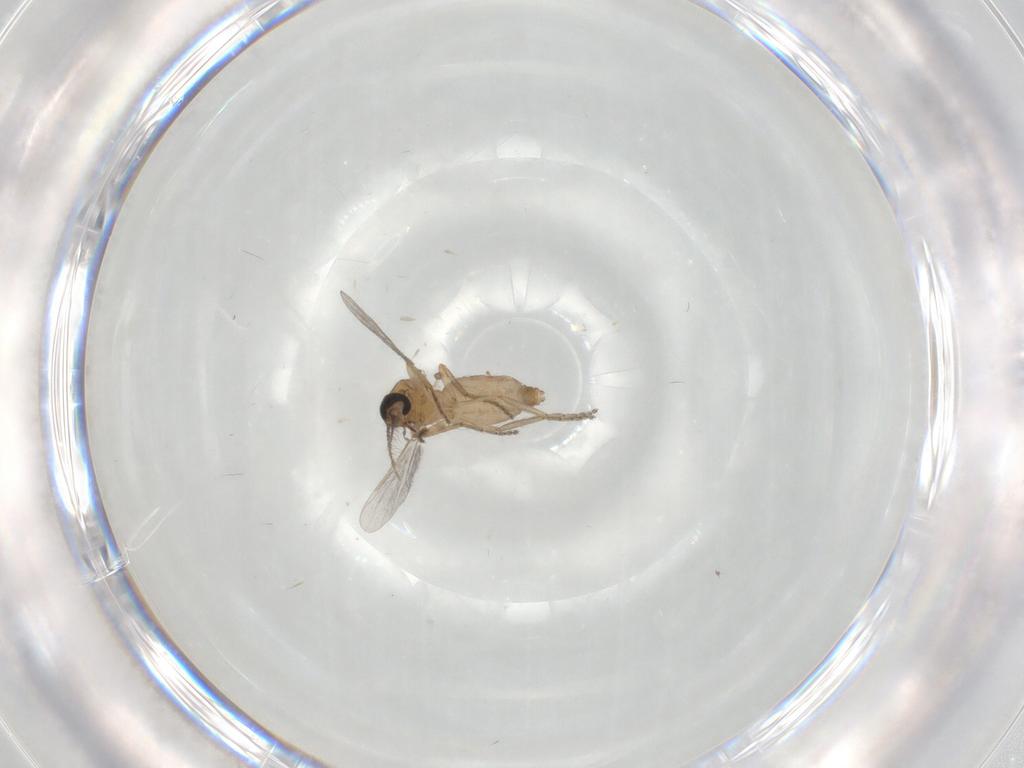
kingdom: Animalia
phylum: Arthropoda
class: Insecta
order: Diptera
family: Ceratopogonidae
